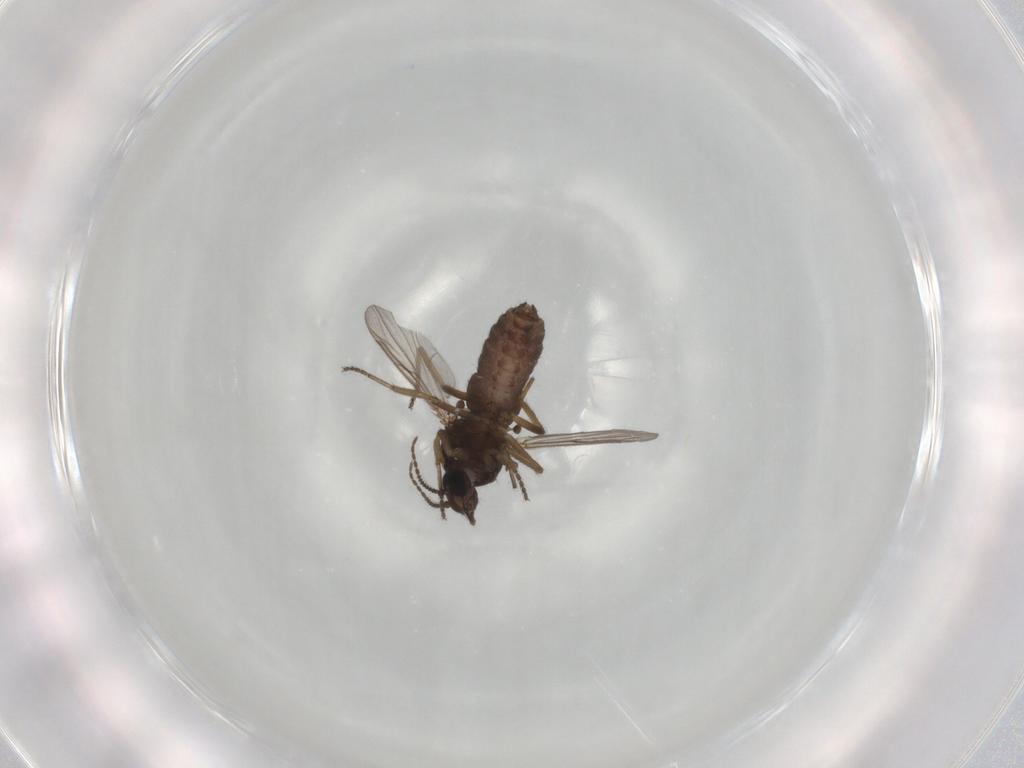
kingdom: Animalia
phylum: Arthropoda
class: Insecta
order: Diptera
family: Ceratopogonidae
